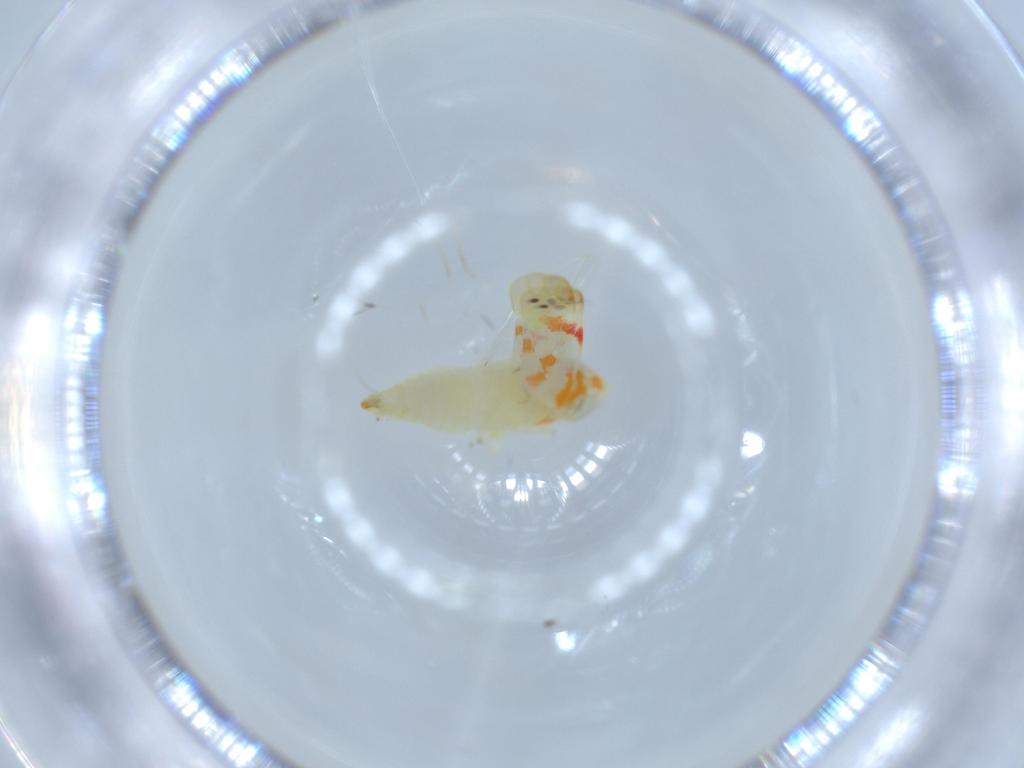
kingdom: Animalia
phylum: Arthropoda
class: Insecta
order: Hemiptera
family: Cicadellidae
